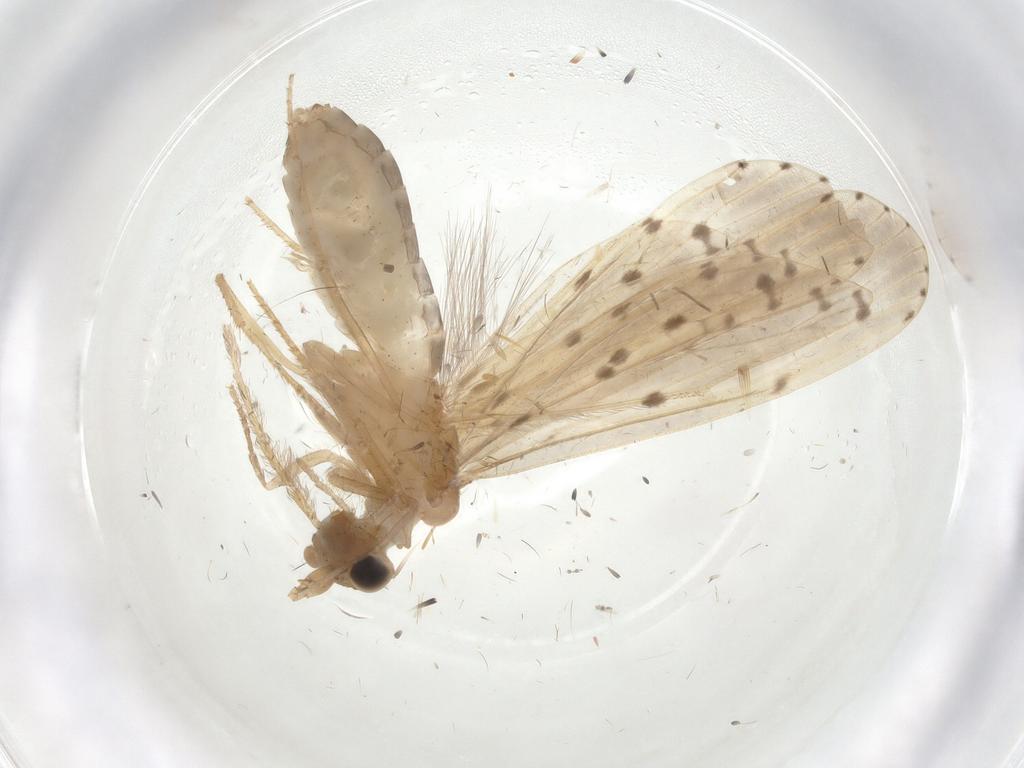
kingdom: Animalia
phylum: Arthropoda
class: Insecta
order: Trichoptera
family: Leptoceridae
